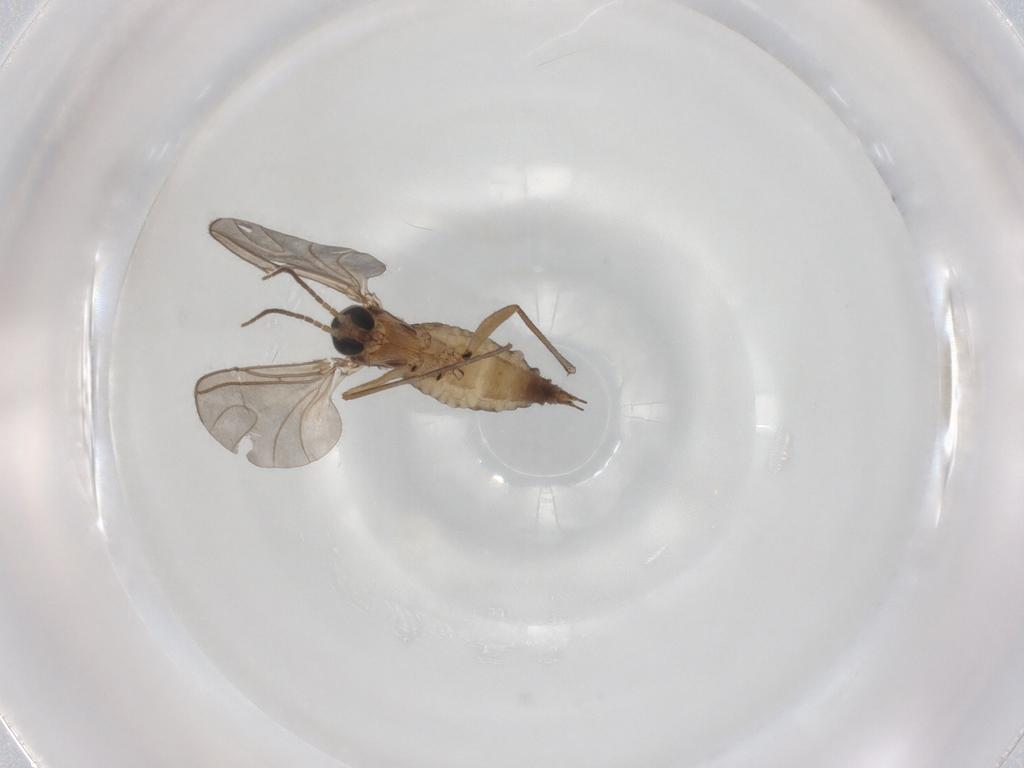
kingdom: Animalia
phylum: Arthropoda
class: Insecta
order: Diptera
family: Sciaridae
